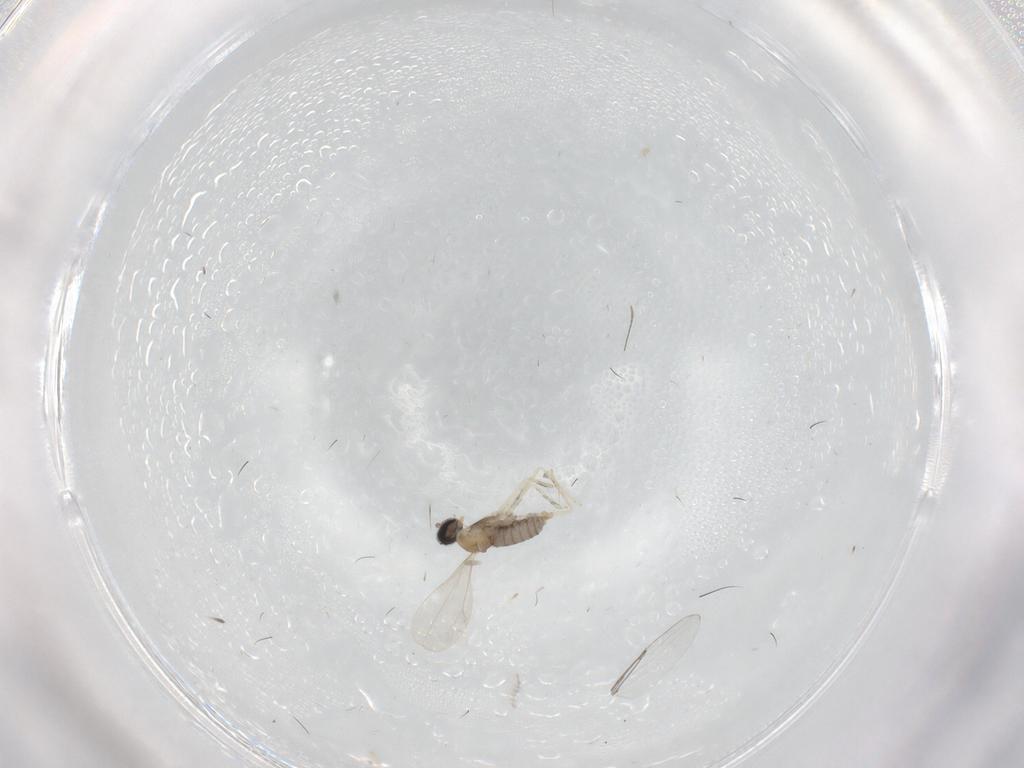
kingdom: Animalia
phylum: Arthropoda
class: Insecta
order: Diptera
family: Cecidomyiidae
